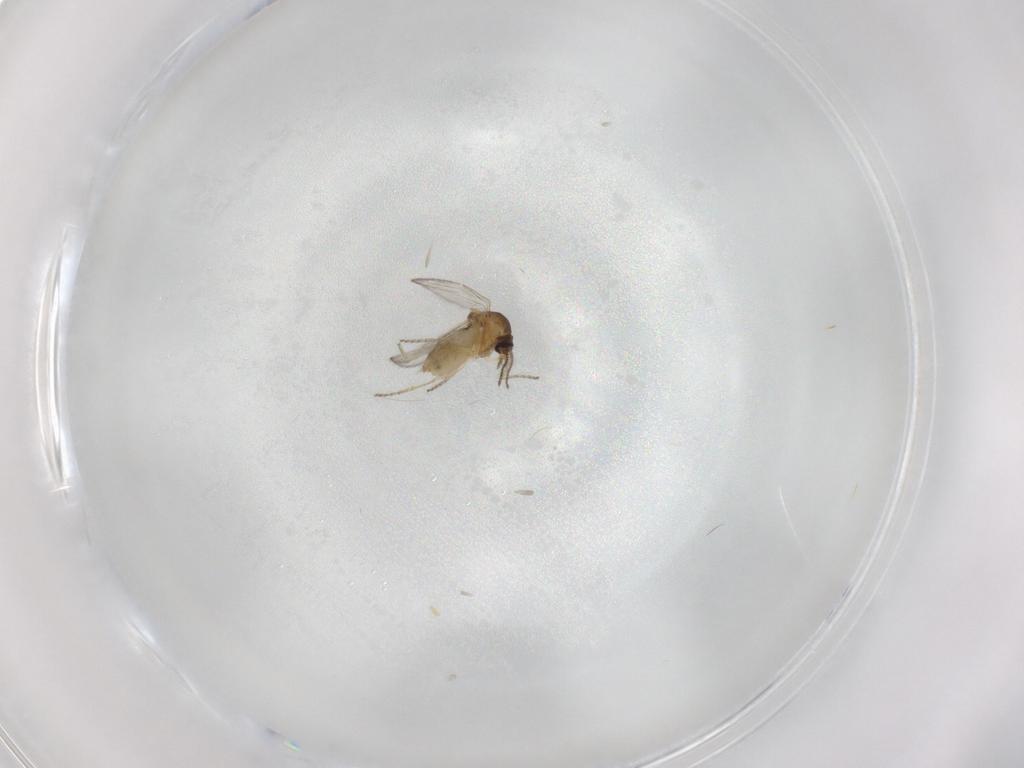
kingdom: Animalia
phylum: Arthropoda
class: Insecta
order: Diptera
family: Ceratopogonidae
